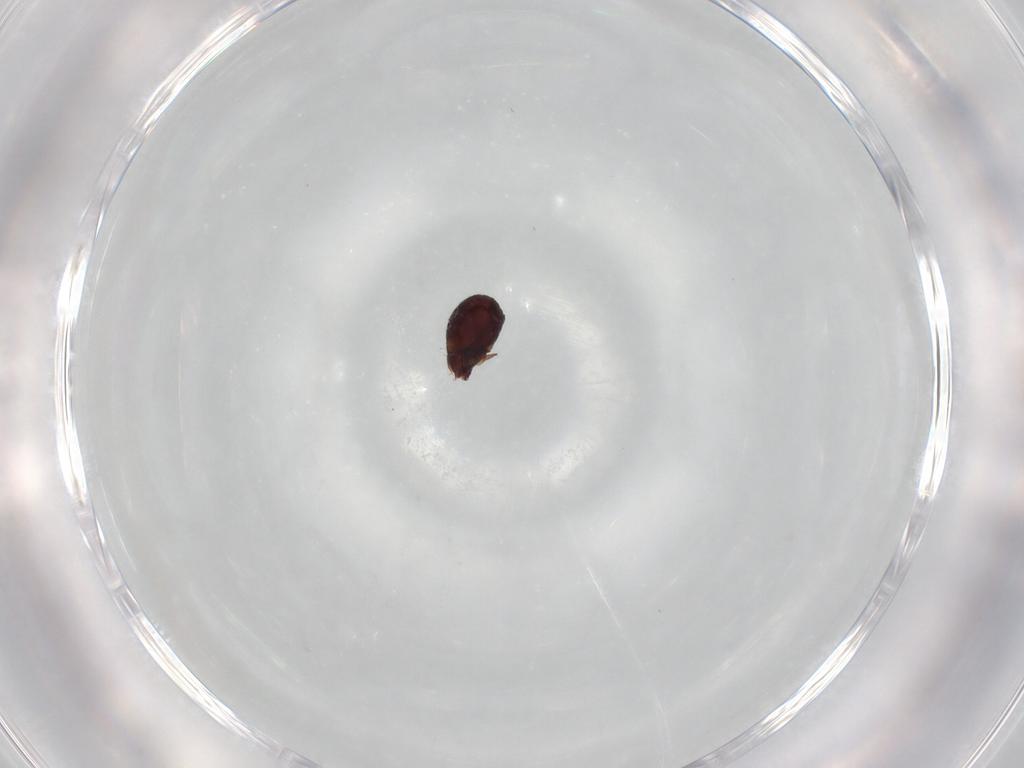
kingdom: Animalia
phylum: Arthropoda
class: Arachnida
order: Sarcoptiformes
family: Humerobatidae
